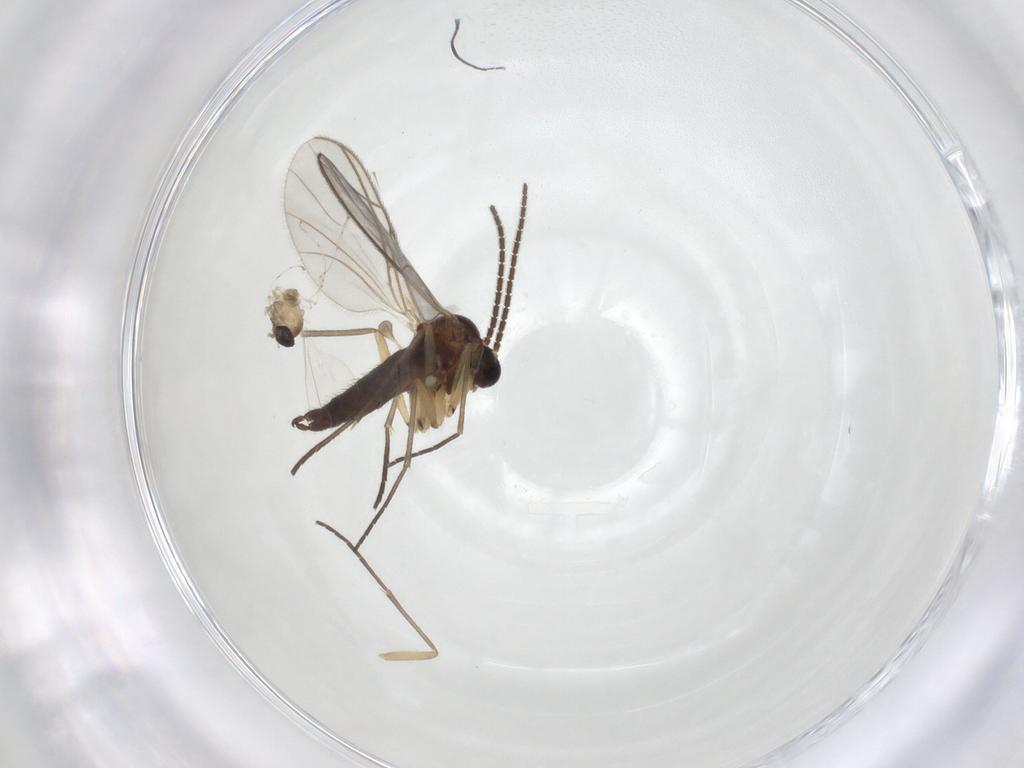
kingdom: Animalia
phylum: Arthropoda
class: Insecta
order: Diptera
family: Cecidomyiidae
